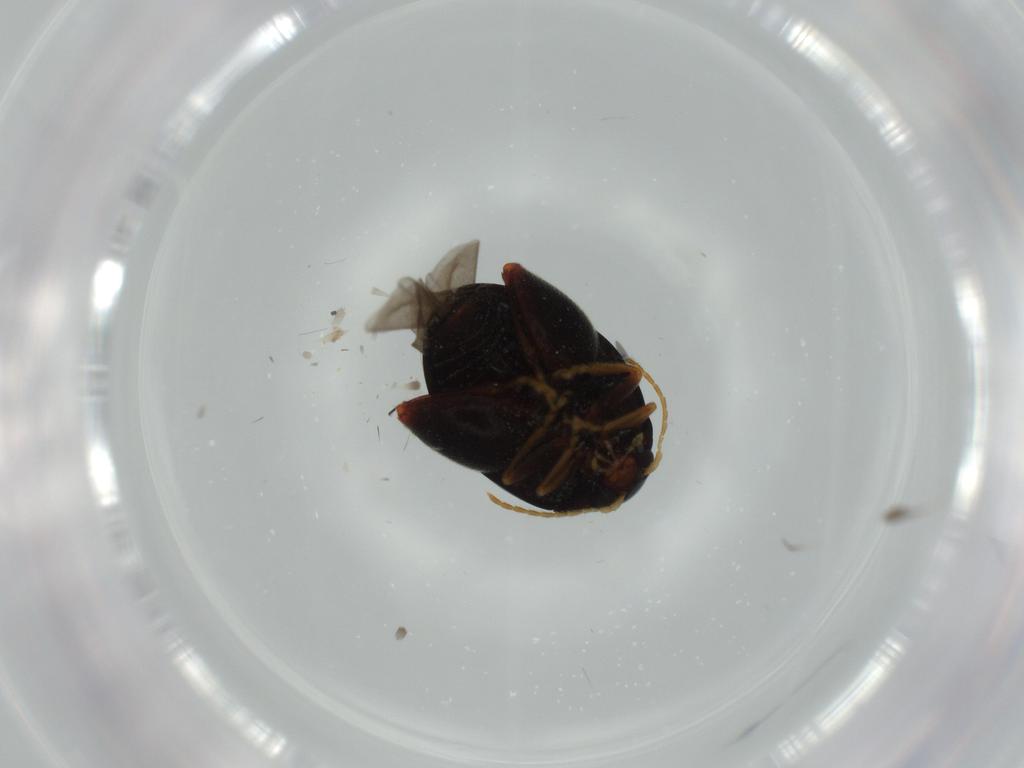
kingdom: Animalia
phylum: Arthropoda
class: Insecta
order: Coleoptera
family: Chrysomelidae
